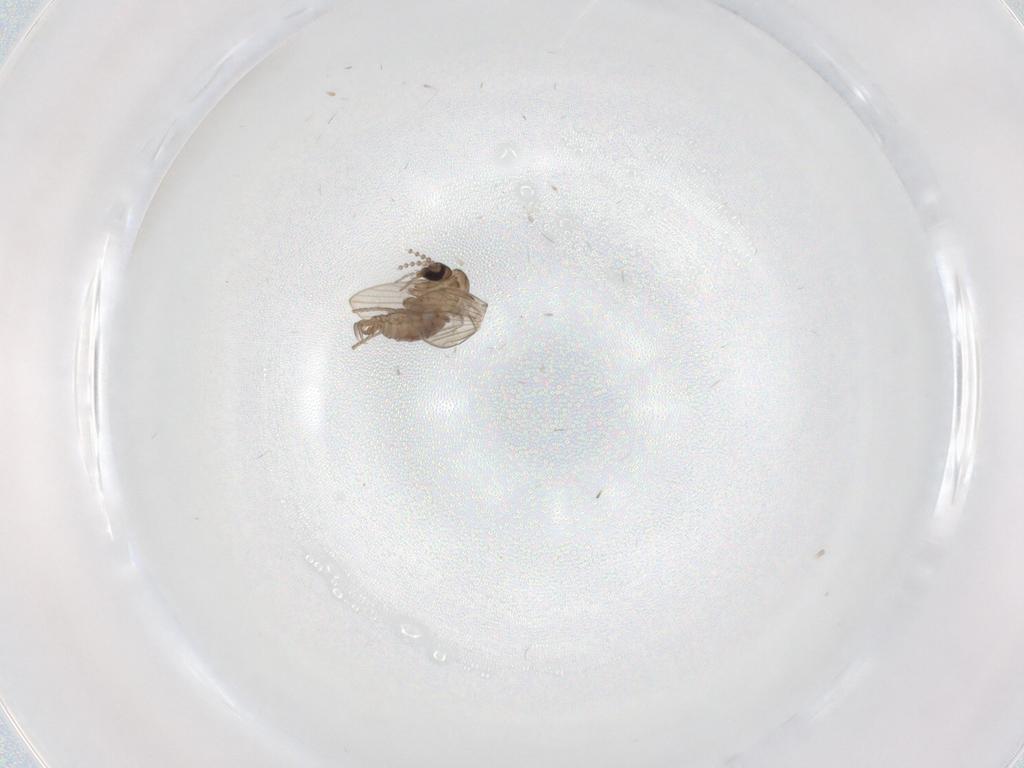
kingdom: Animalia
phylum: Arthropoda
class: Insecta
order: Diptera
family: Psychodidae
